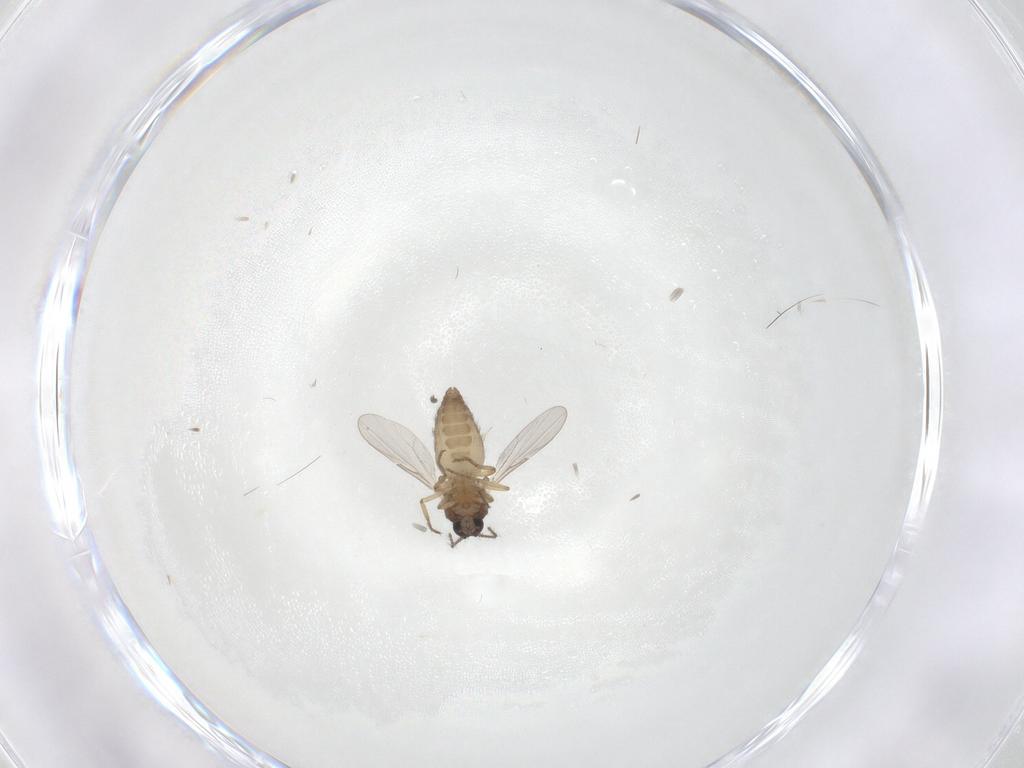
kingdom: Animalia
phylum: Arthropoda
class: Insecta
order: Diptera
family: Ceratopogonidae
